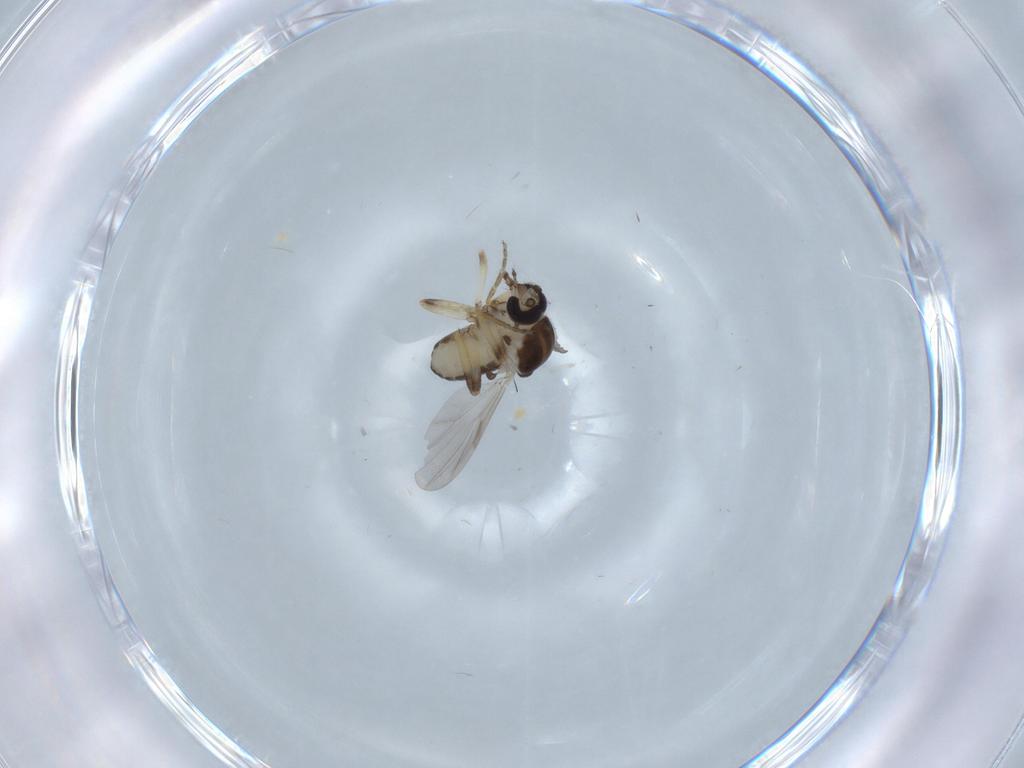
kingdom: Animalia
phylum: Arthropoda
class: Insecta
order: Diptera
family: Ceratopogonidae
